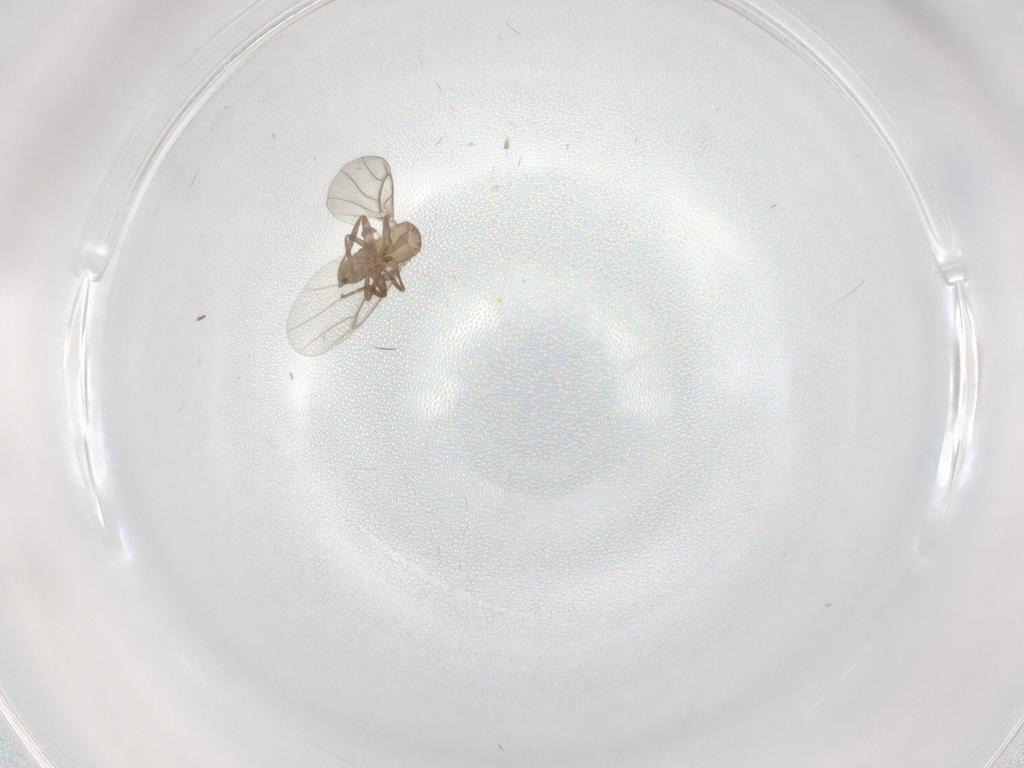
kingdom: Animalia
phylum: Arthropoda
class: Insecta
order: Diptera
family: Cecidomyiidae
